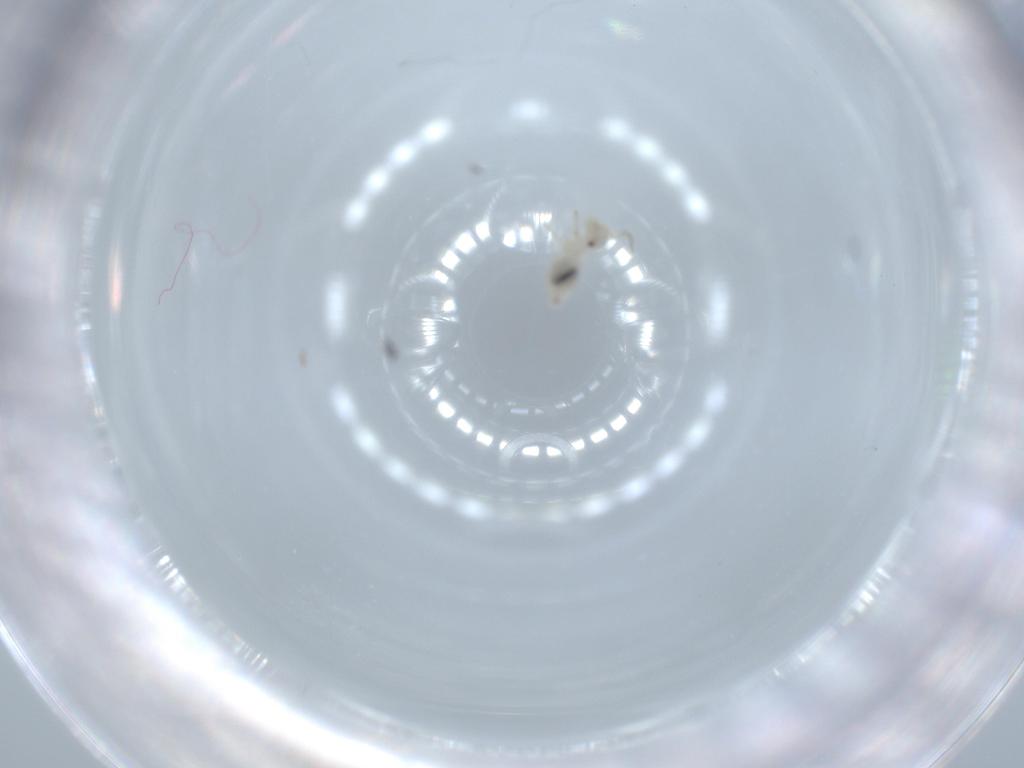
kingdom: Animalia
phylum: Arthropoda
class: Insecta
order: Psocodea
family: Caeciliusidae
